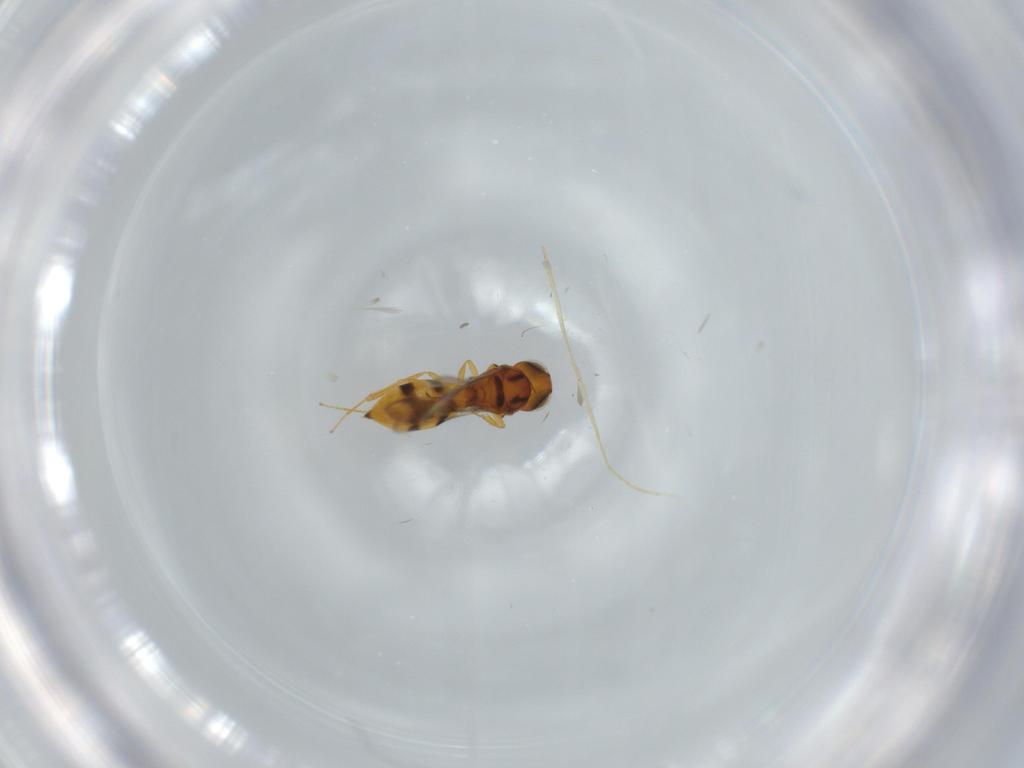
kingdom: Animalia
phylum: Arthropoda
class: Insecta
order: Hymenoptera
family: Scelionidae
